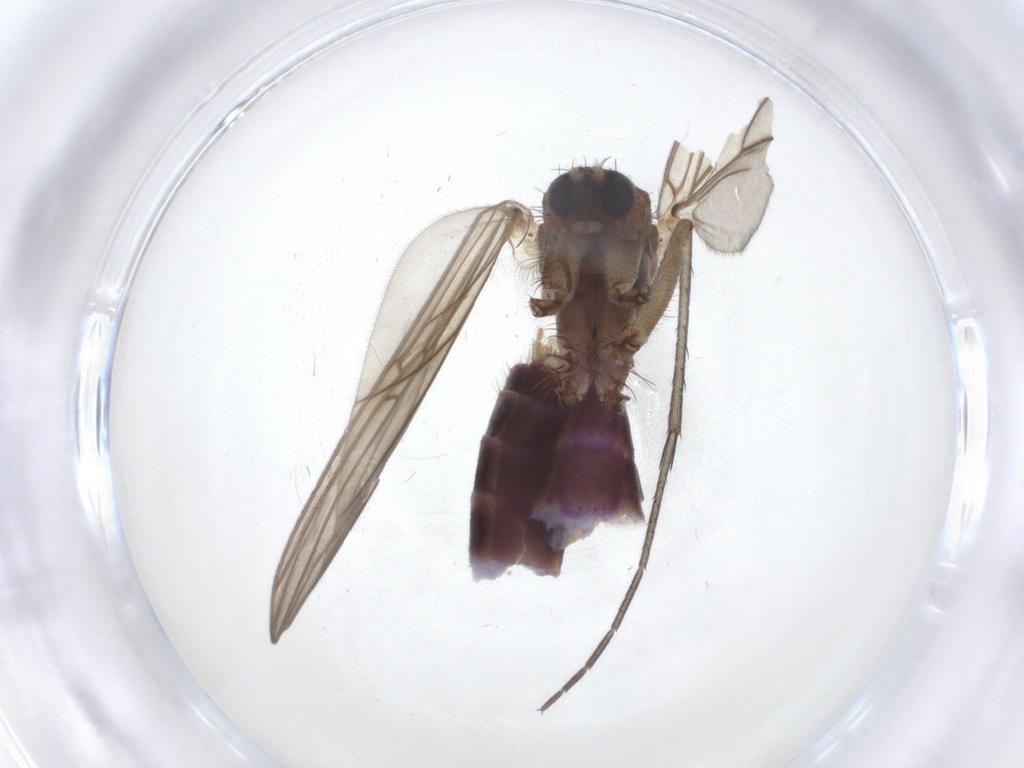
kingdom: Animalia
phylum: Arthropoda
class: Insecta
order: Diptera
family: Mycetophilidae
